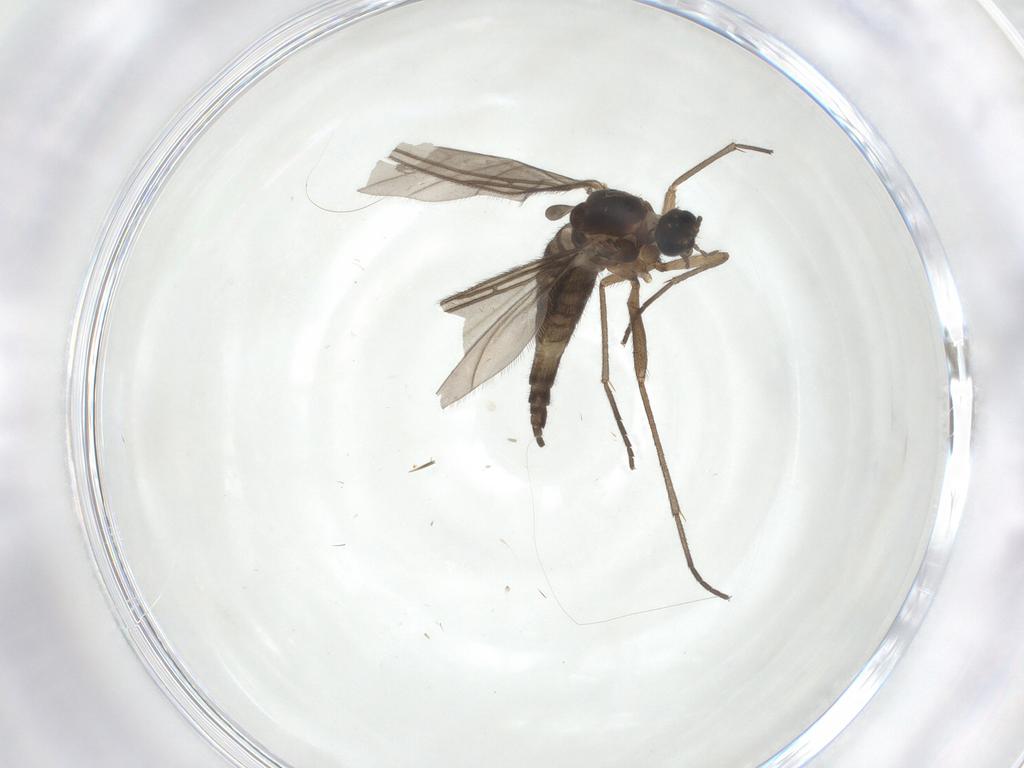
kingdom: Animalia
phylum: Arthropoda
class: Insecta
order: Diptera
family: Sciaridae
